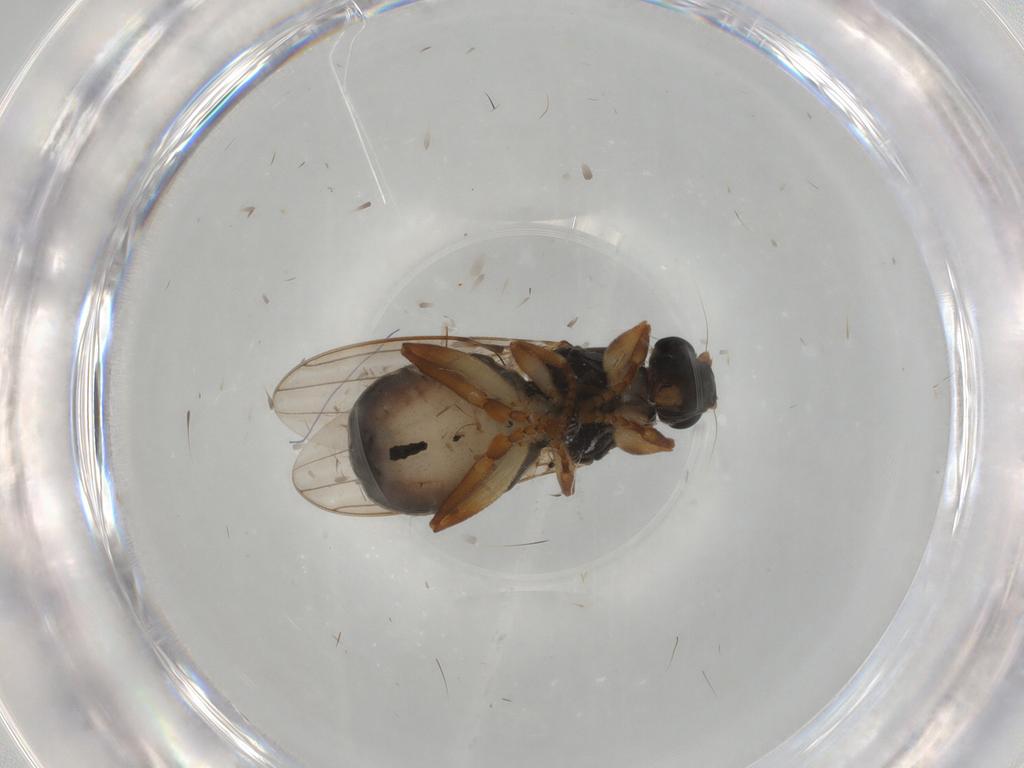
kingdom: Animalia
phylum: Arthropoda
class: Insecta
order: Diptera
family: Sphaeroceridae
